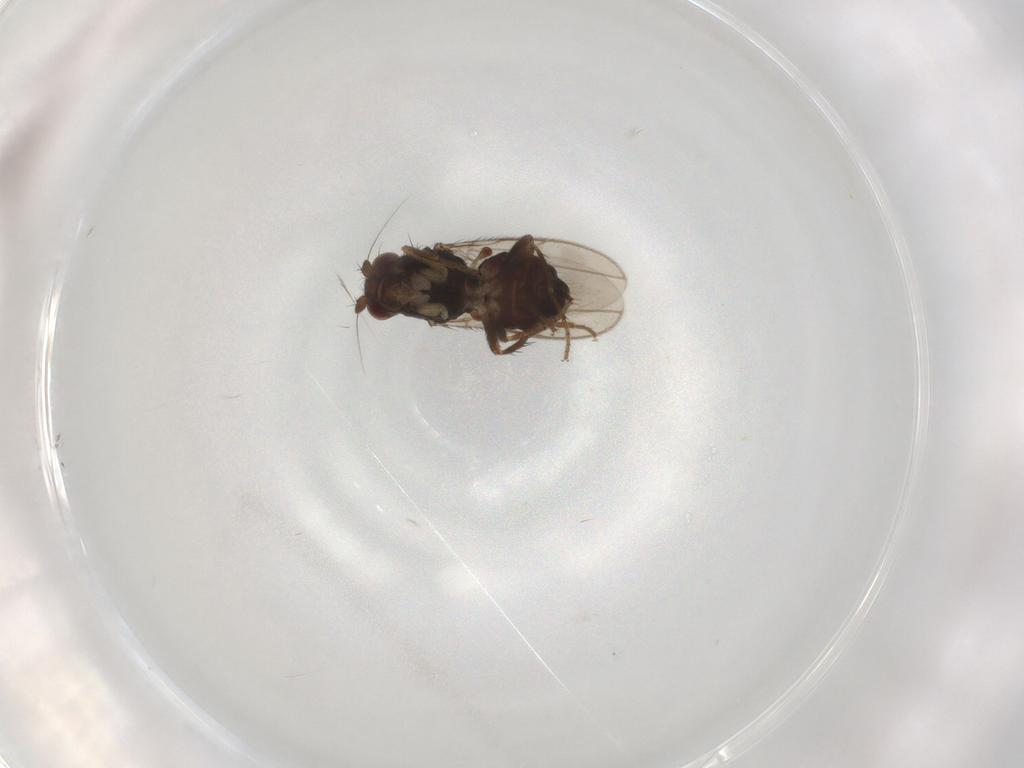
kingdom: Animalia
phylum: Arthropoda
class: Insecta
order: Diptera
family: Sphaeroceridae
